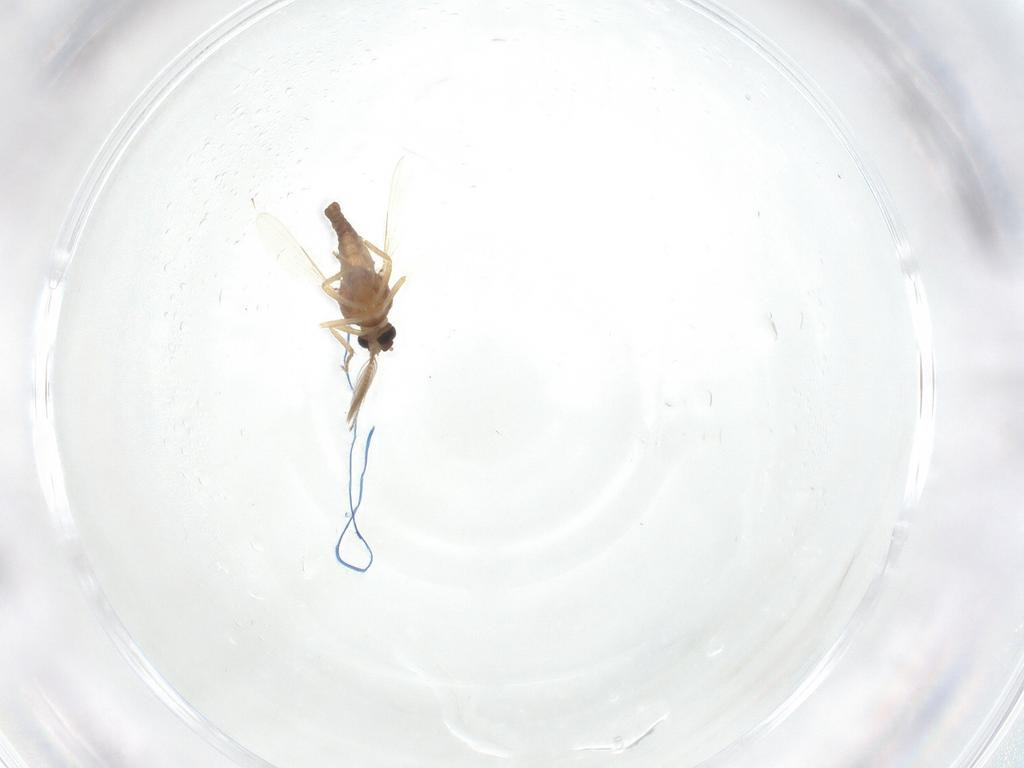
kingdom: Animalia
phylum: Arthropoda
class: Insecta
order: Diptera
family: Ceratopogonidae
